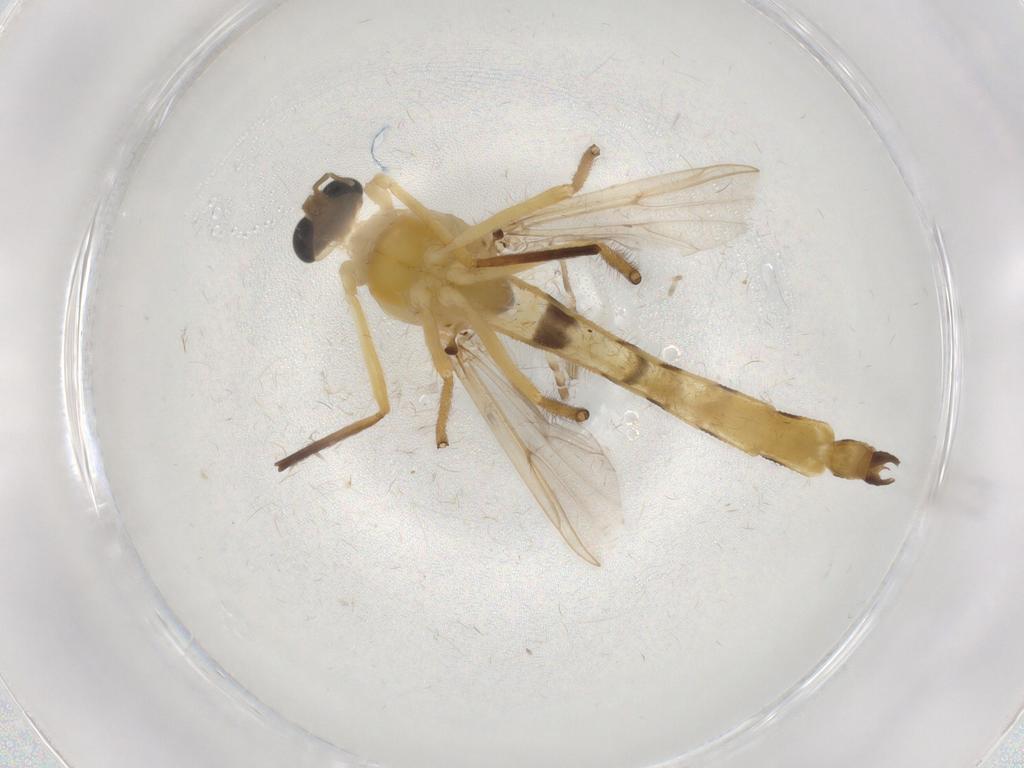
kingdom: Animalia
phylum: Arthropoda
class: Insecta
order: Diptera
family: Chironomidae
